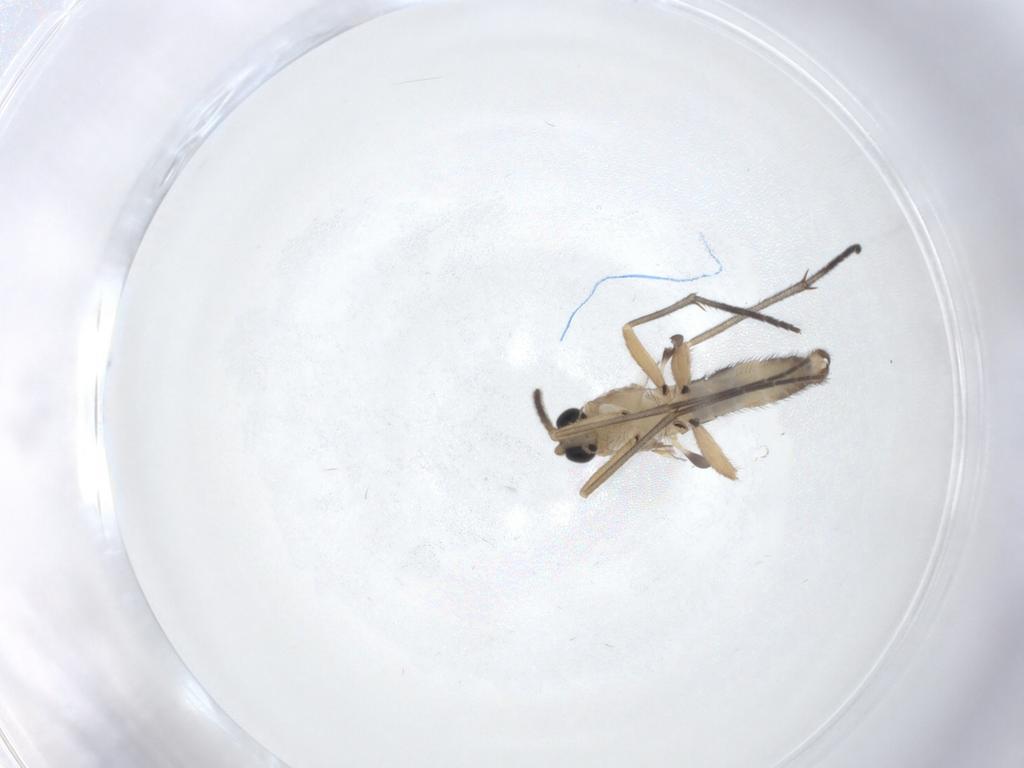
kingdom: Animalia
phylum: Arthropoda
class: Insecta
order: Diptera
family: Sciaridae
